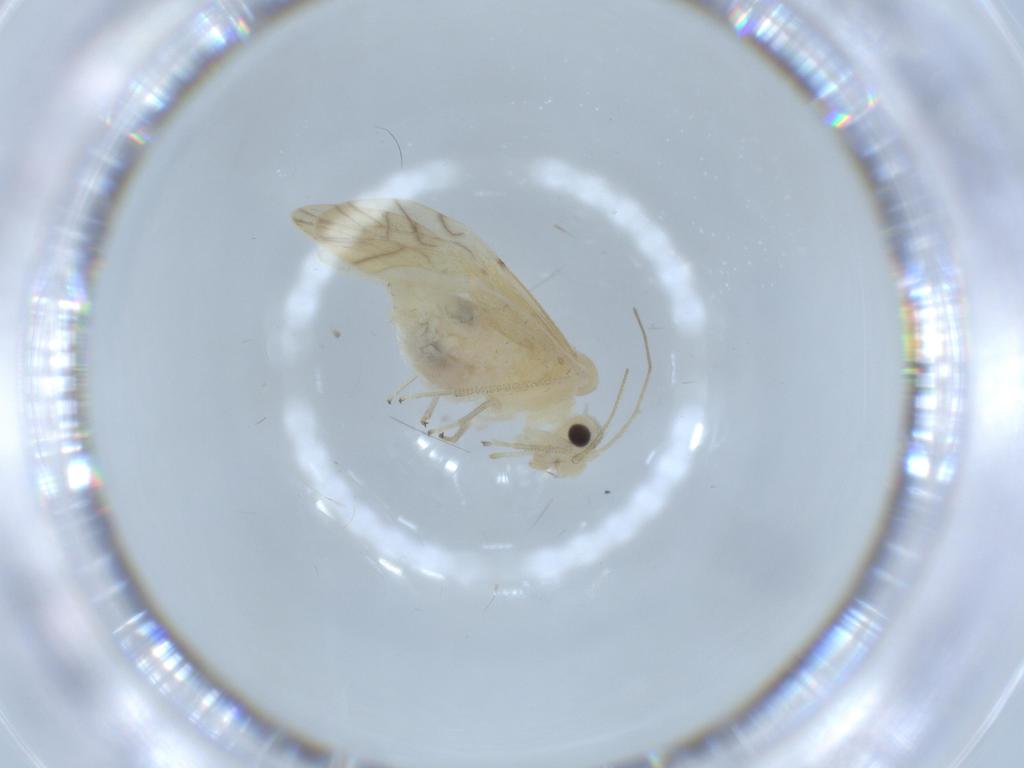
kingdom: Animalia
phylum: Arthropoda
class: Insecta
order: Psocodea
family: Caeciliusidae
